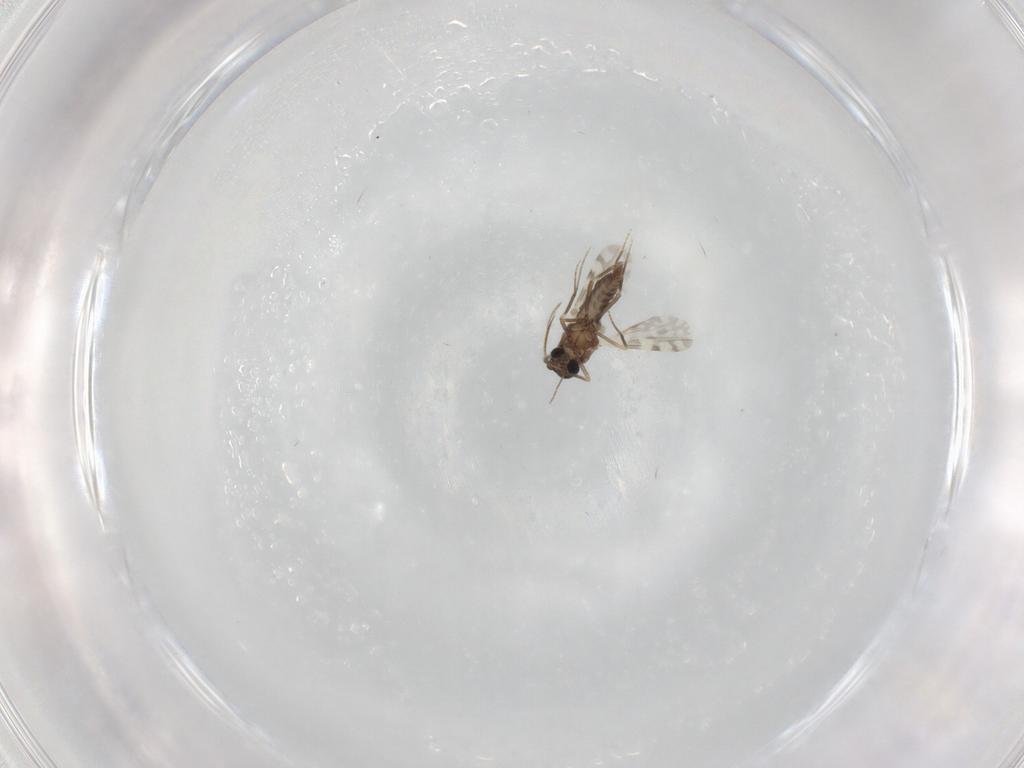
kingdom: Animalia
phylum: Arthropoda
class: Insecta
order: Diptera
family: Ceratopogonidae
